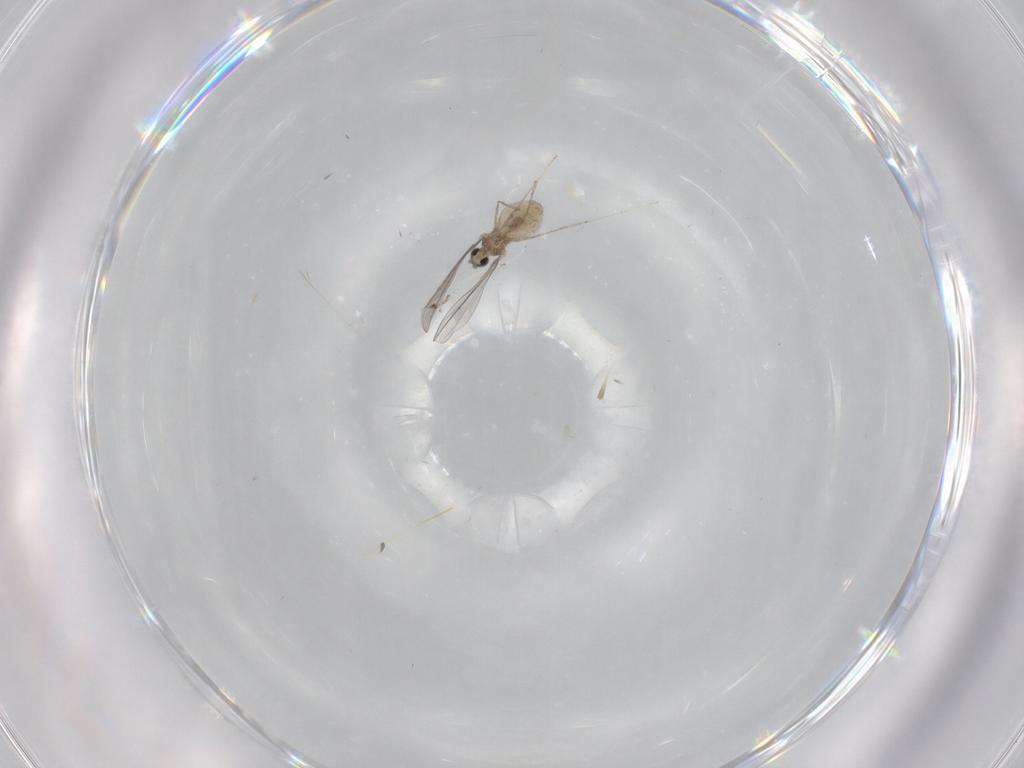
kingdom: Animalia
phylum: Arthropoda
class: Insecta
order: Diptera
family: Cecidomyiidae
